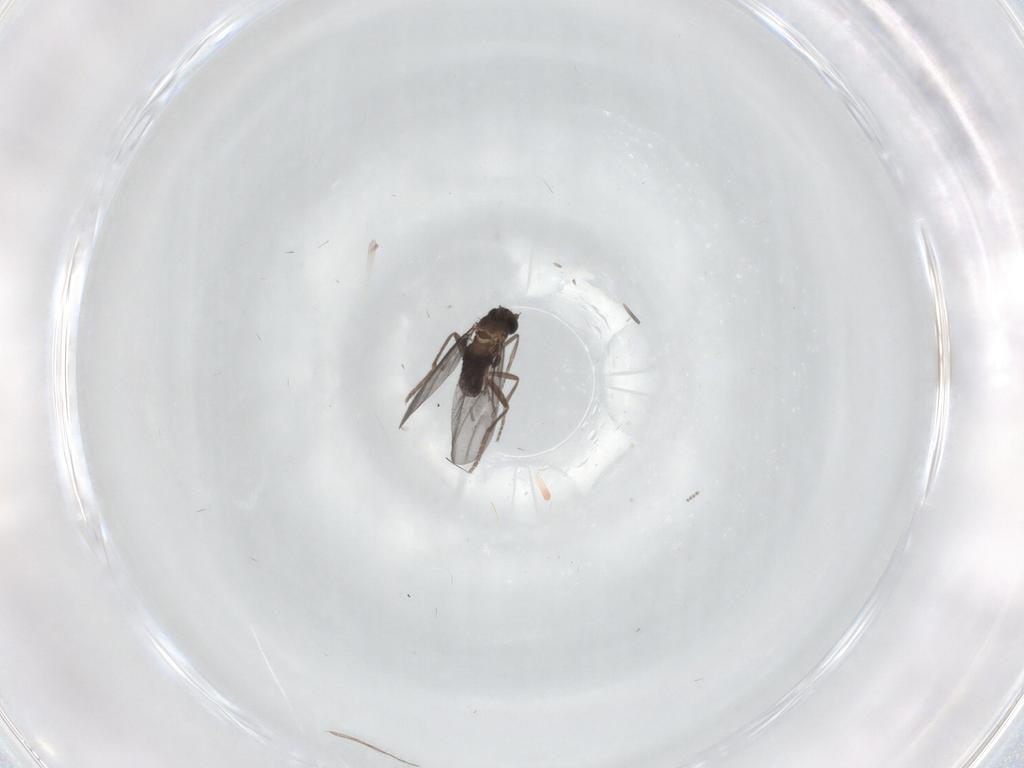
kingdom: Animalia
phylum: Arthropoda
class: Insecta
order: Diptera
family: Phoridae
